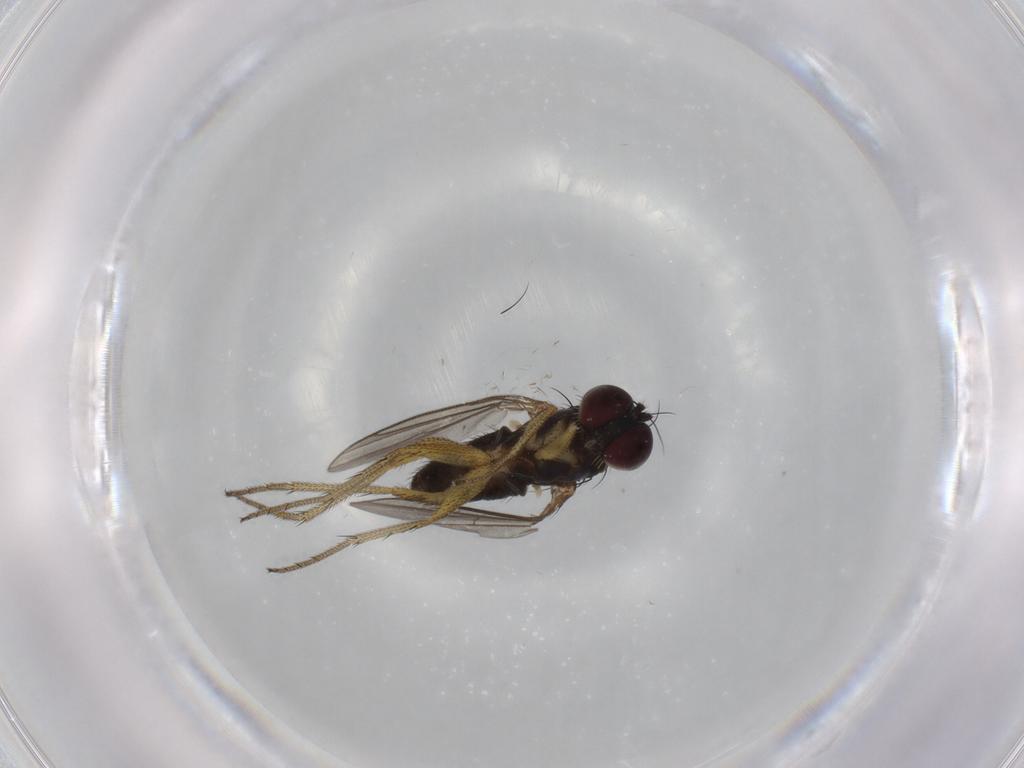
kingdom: Animalia
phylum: Arthropoda
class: Insecta
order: Diptera
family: Dolichopodidae
